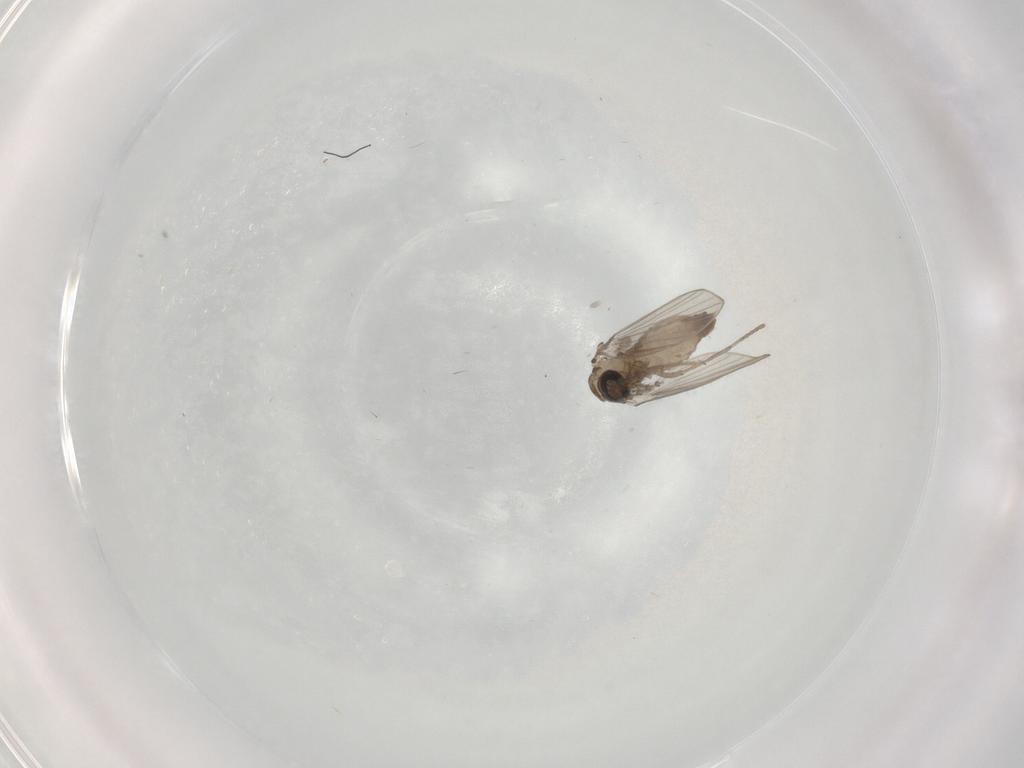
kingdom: Animalia
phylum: Arthropoda
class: Insecta
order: Diptera
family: Psychodidae
